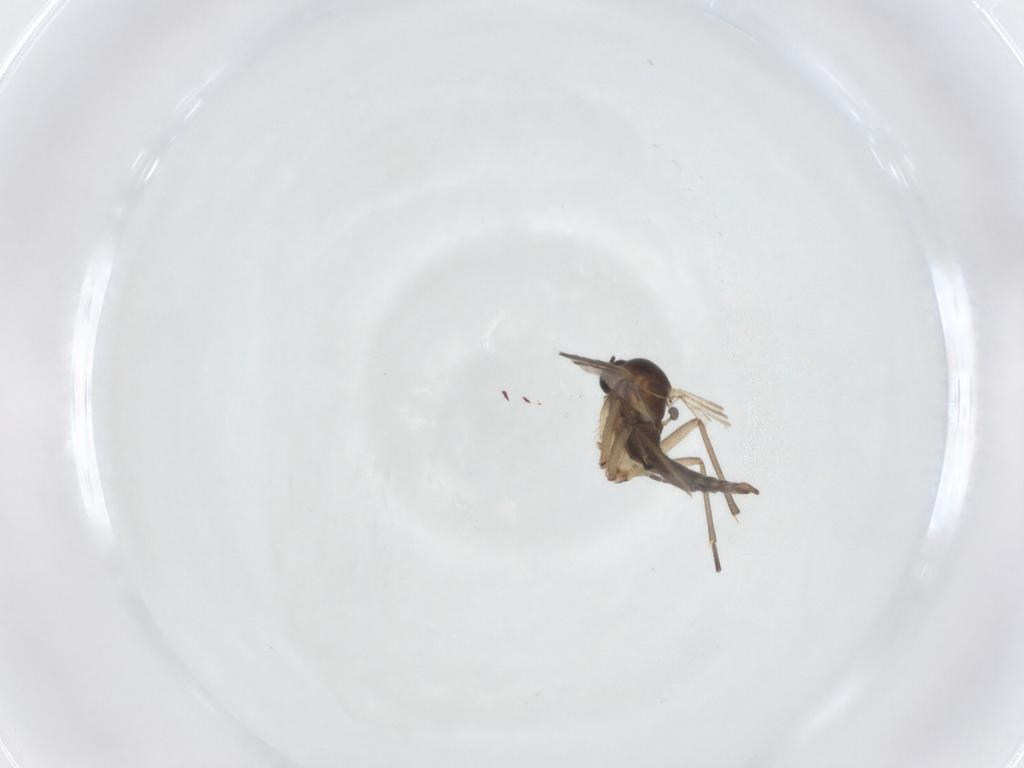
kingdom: Animalia
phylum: Arthropoda
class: Insecta
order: Diptera
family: Sciaridae
